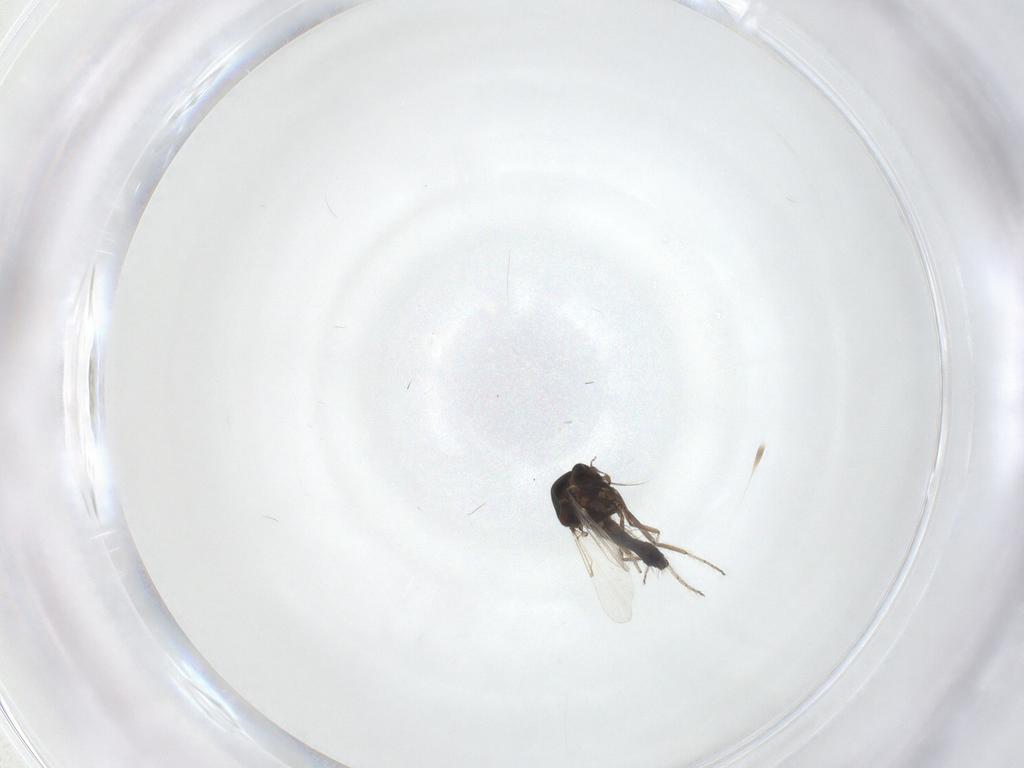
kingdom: Animalia
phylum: Arthropoda
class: Insecta
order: Diptera
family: Ceratopogonidae
